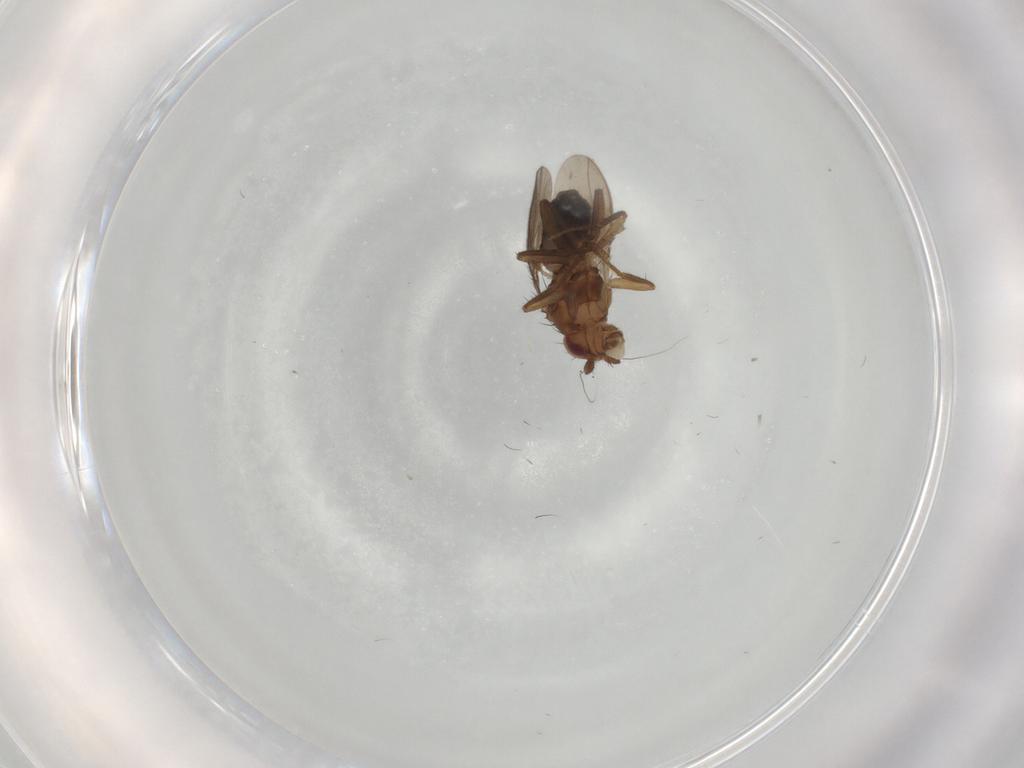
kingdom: Animalia
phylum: Arthropoda
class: Insecta
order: Diptera
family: Sphaeroceridae
